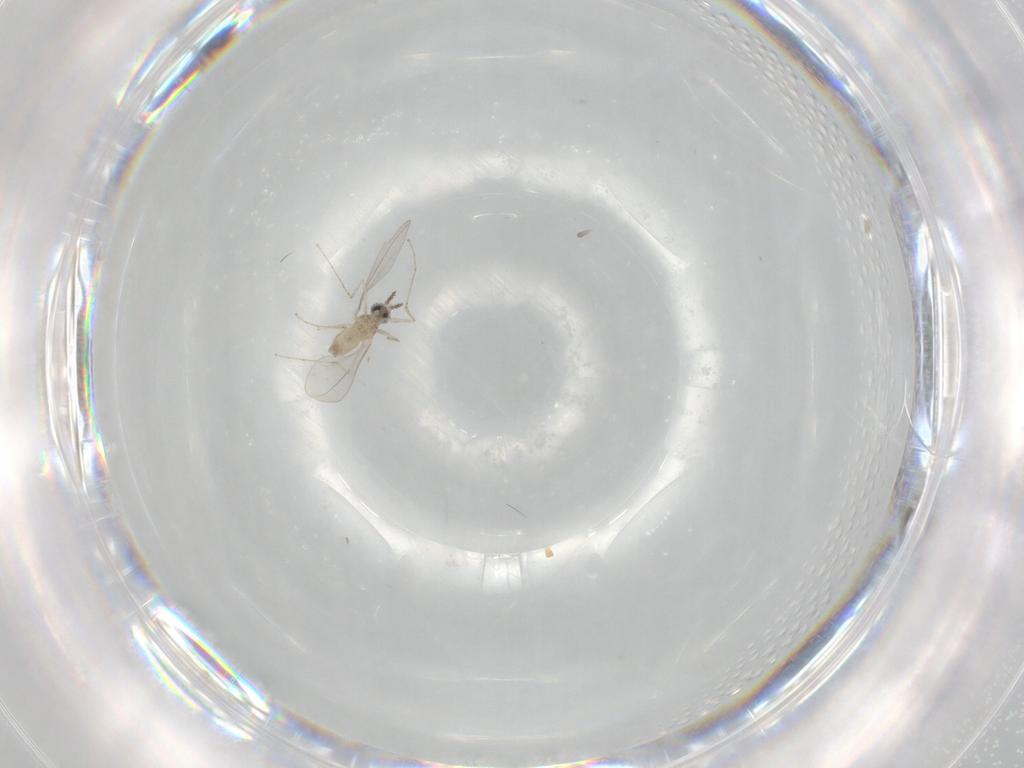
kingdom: Animalia
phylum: Arthropoda
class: Insecta
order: Diptera
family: Cecidomyiidae
